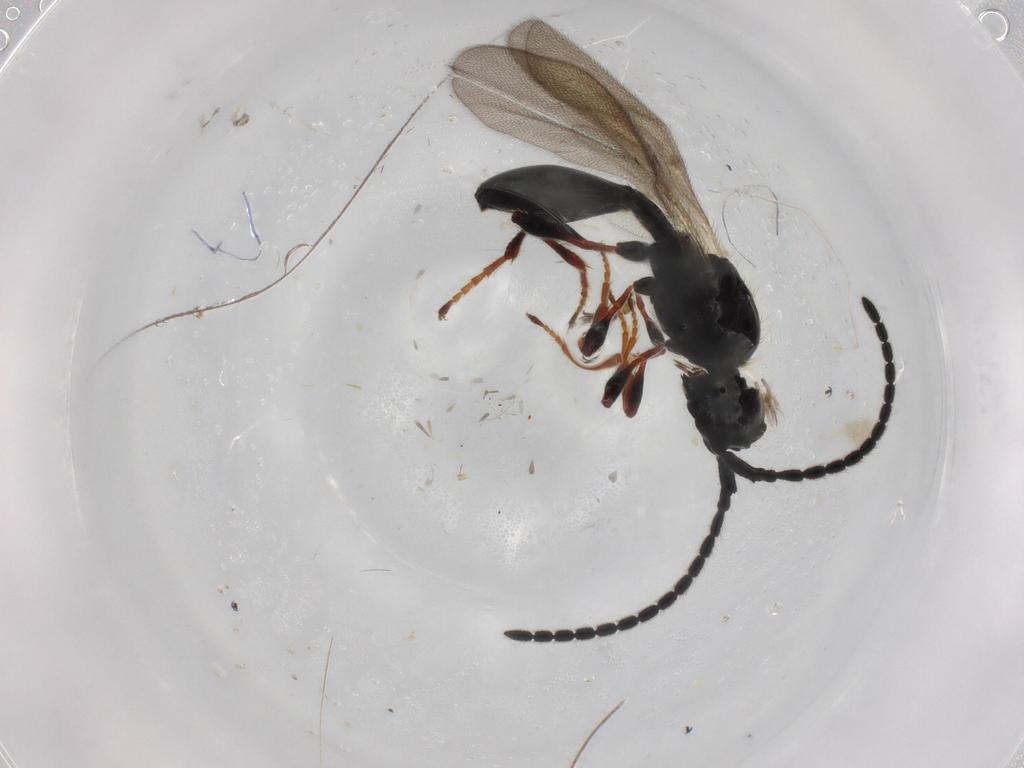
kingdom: Animalia
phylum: Arthropoda
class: Insecta
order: Hymenoptera
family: Diapriidae
